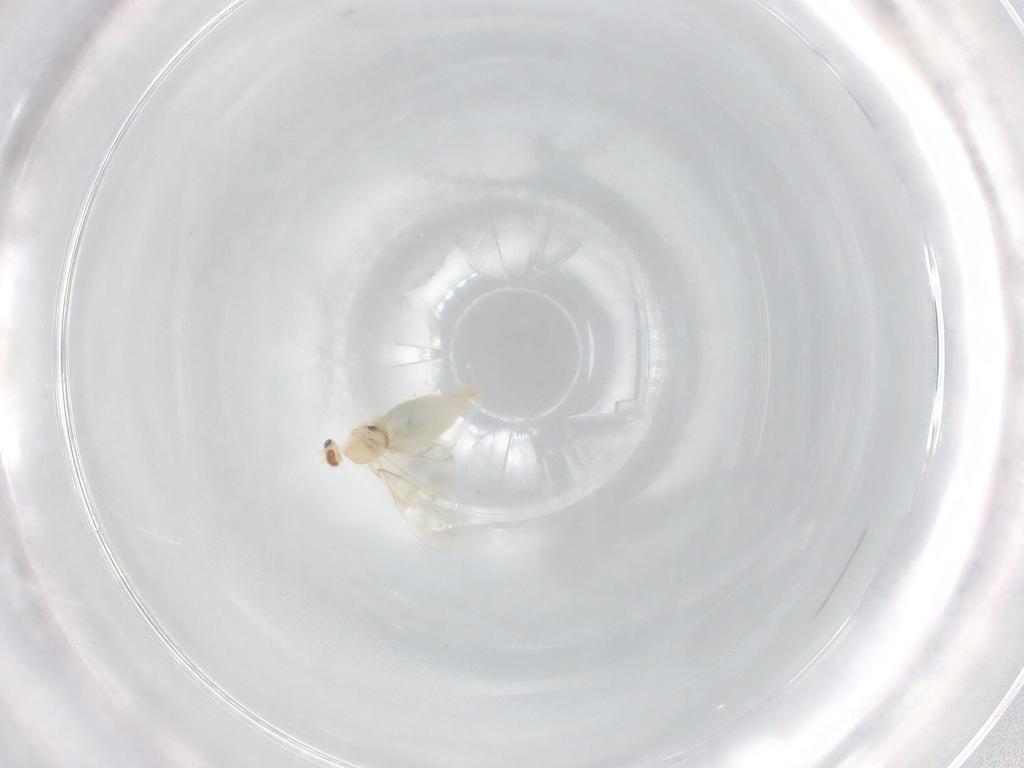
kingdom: Animalia
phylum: Arthropoda
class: Insecta
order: Diptera
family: Cecidomyiidae
